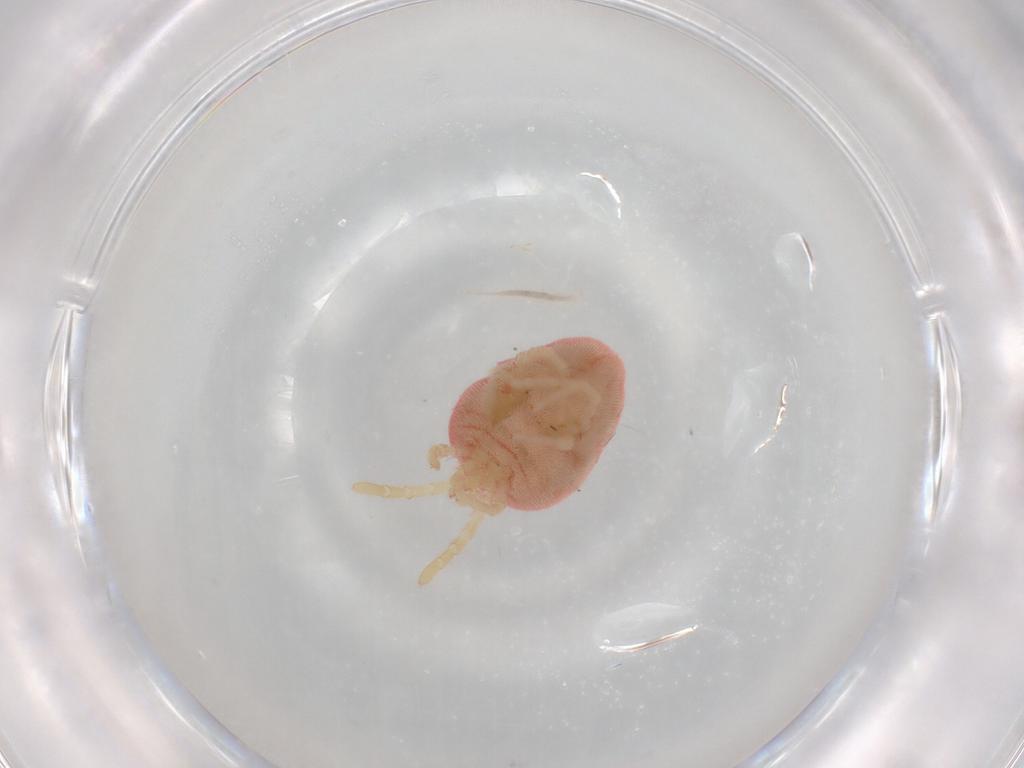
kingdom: Animalia
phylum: Arthropoda
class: Arachnida
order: Trombidiformes
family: Trombidiidae
